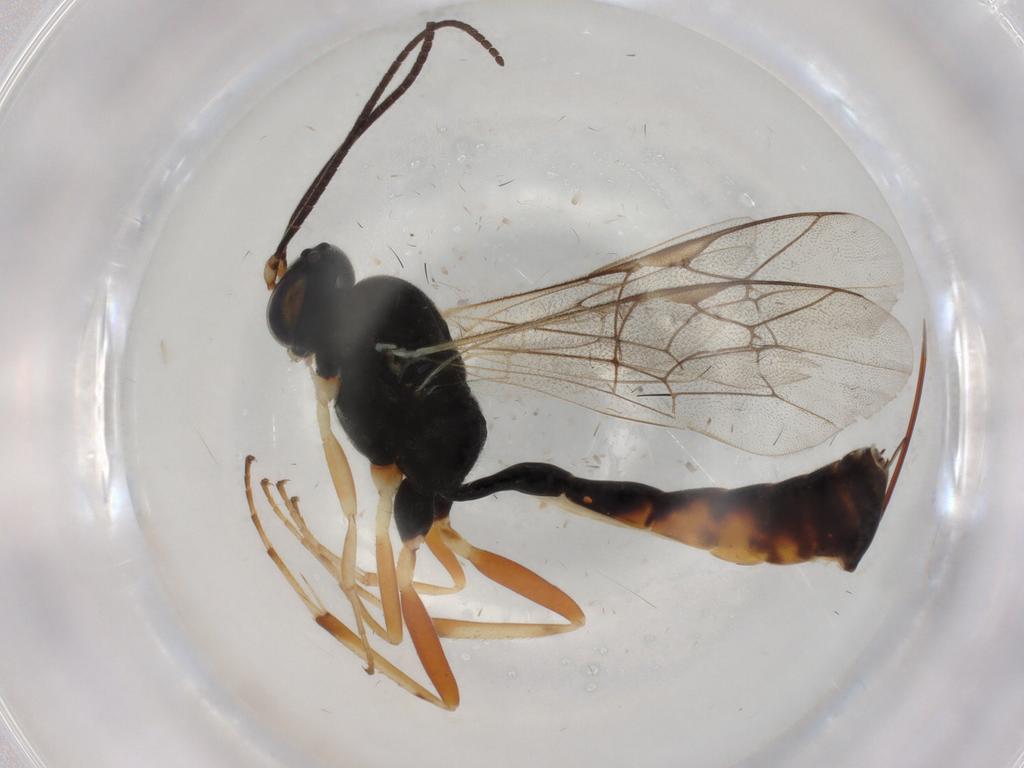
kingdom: Animalia
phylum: Arthropoda
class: Insecta
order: Hymenoptera
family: Ichneumonidae
